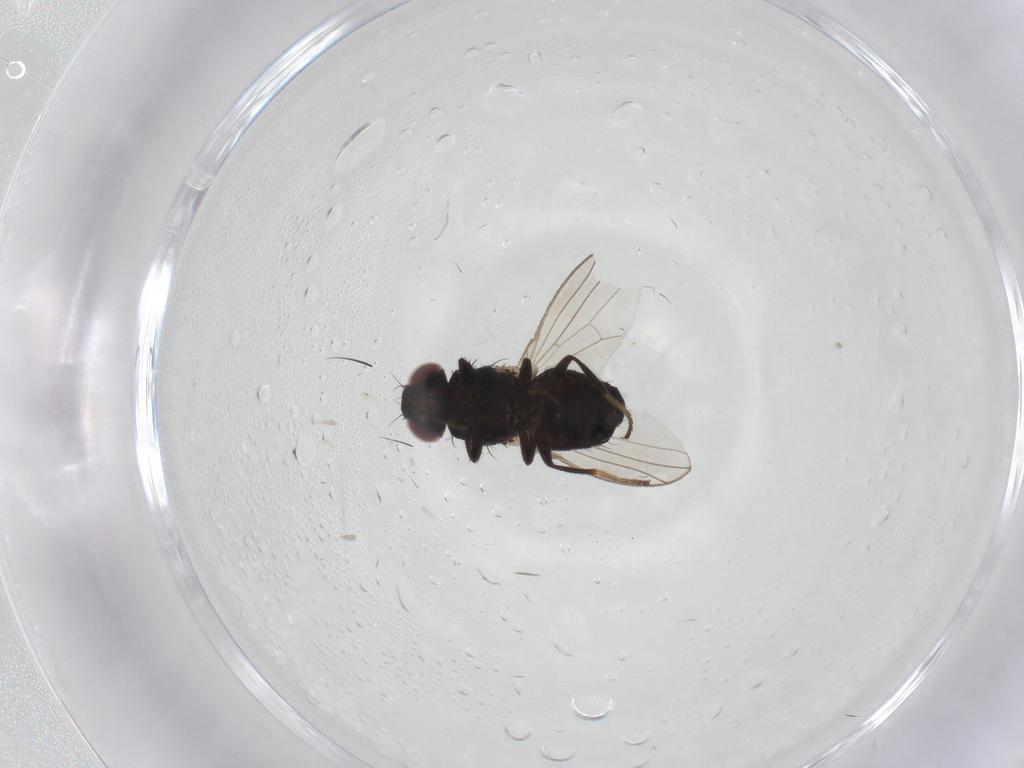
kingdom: Animalia
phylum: Arthropoda
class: Insecta
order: Diptera
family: Carnidae
